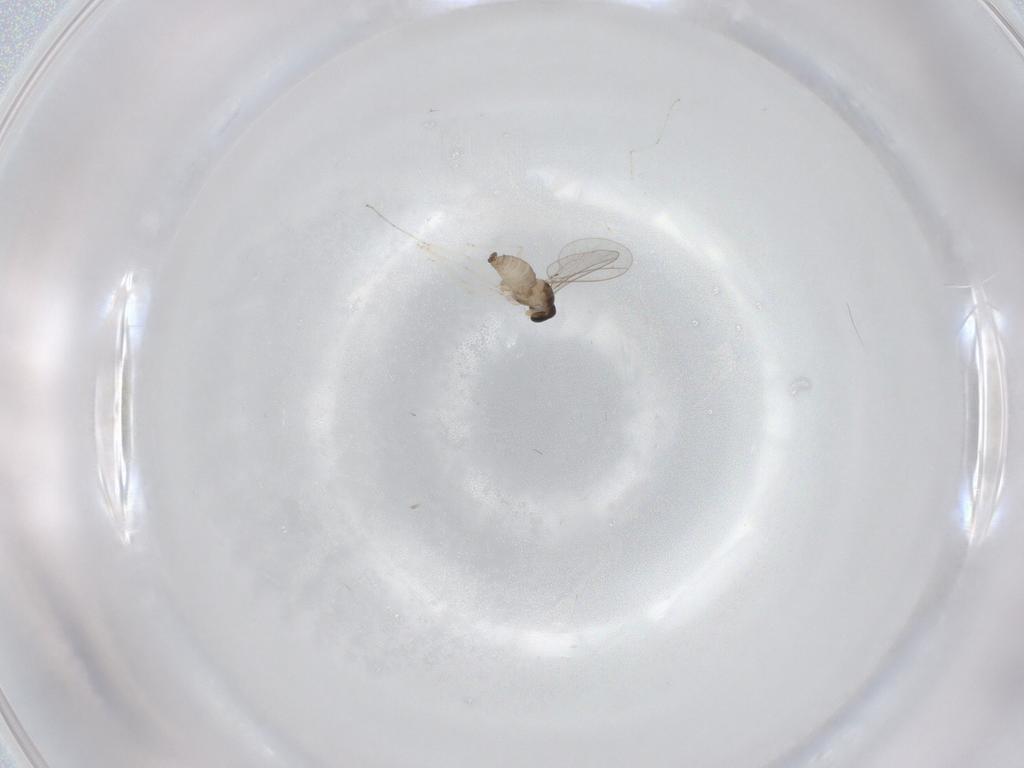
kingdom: Animalia
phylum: Arthropoda
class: Insecta
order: Diptera
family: Cecidomyiidae
